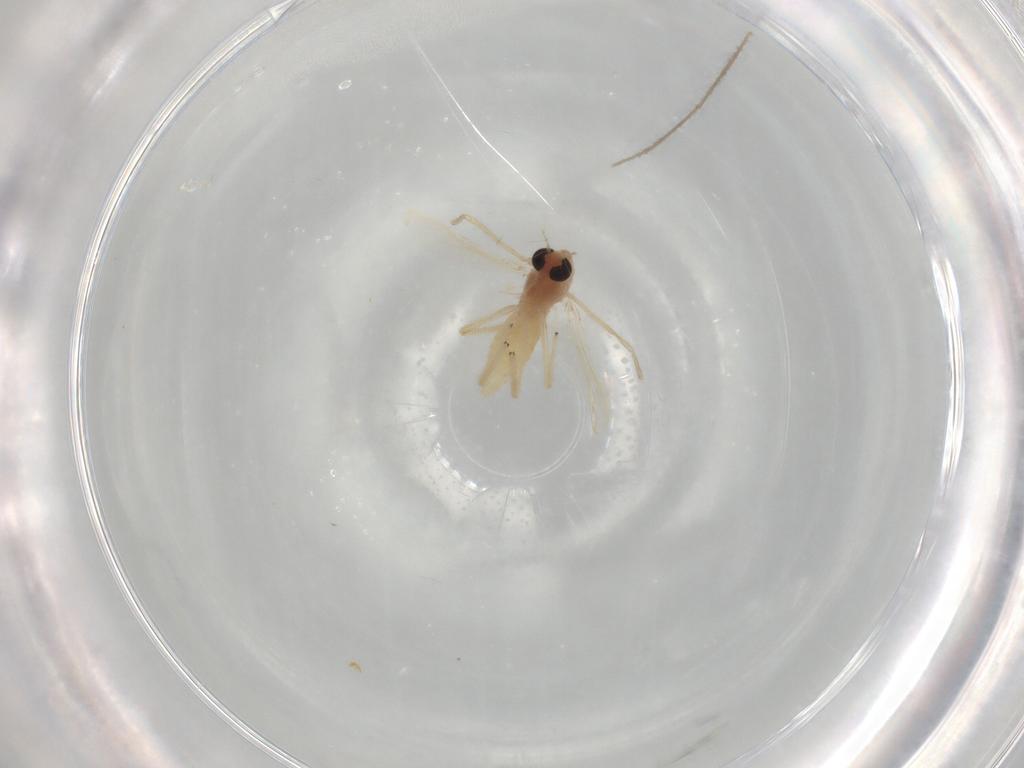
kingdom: Animalia
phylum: Arthropoda
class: Insecta
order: Diptera
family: Chironomidae
